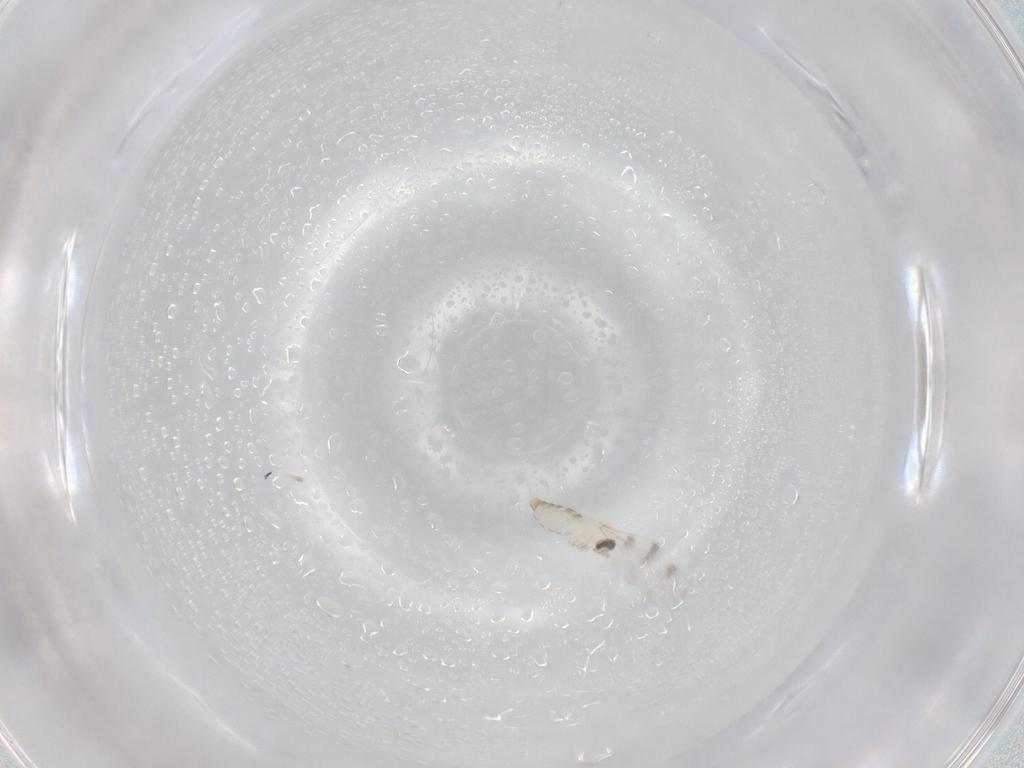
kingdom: Animalia
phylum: Arthropoda
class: Insecta
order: Diptera
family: Cecidomyiidae
